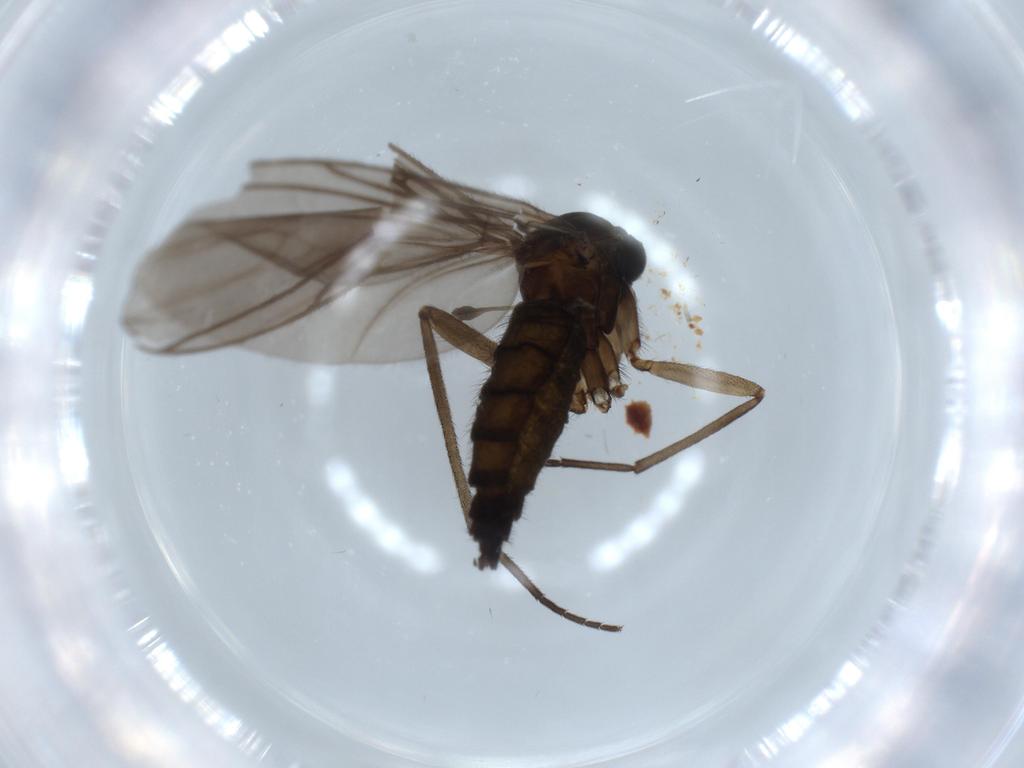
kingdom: Animalia
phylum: Arthropoda
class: Insecta
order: Diptera
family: Sciaridae
